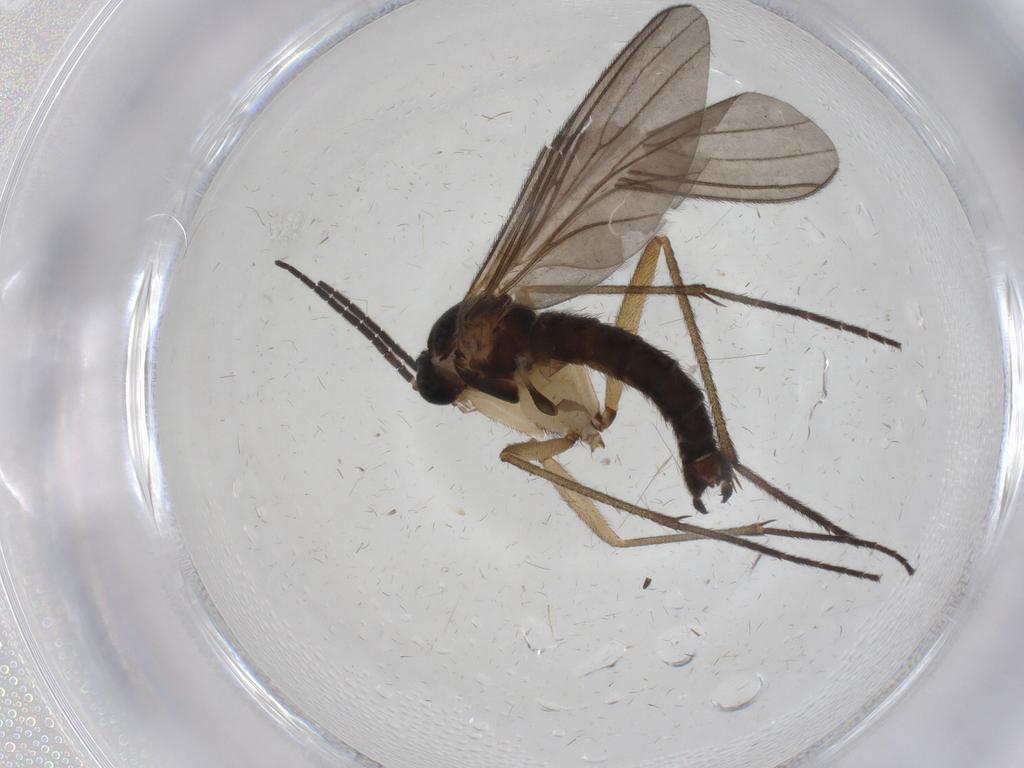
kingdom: Animalia
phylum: Arthropoda
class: Insecta
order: Diptera
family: Sciaridae
